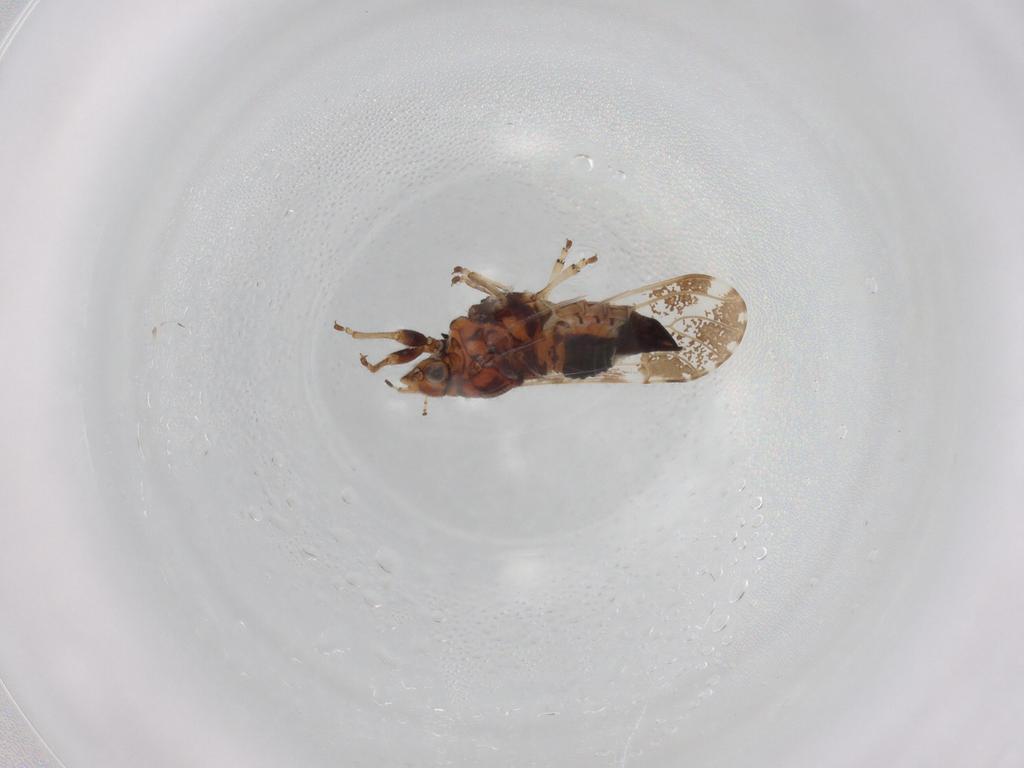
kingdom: Animalia
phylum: Arthropoda
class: Insecta
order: Hemiptera
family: Cicadellidae
